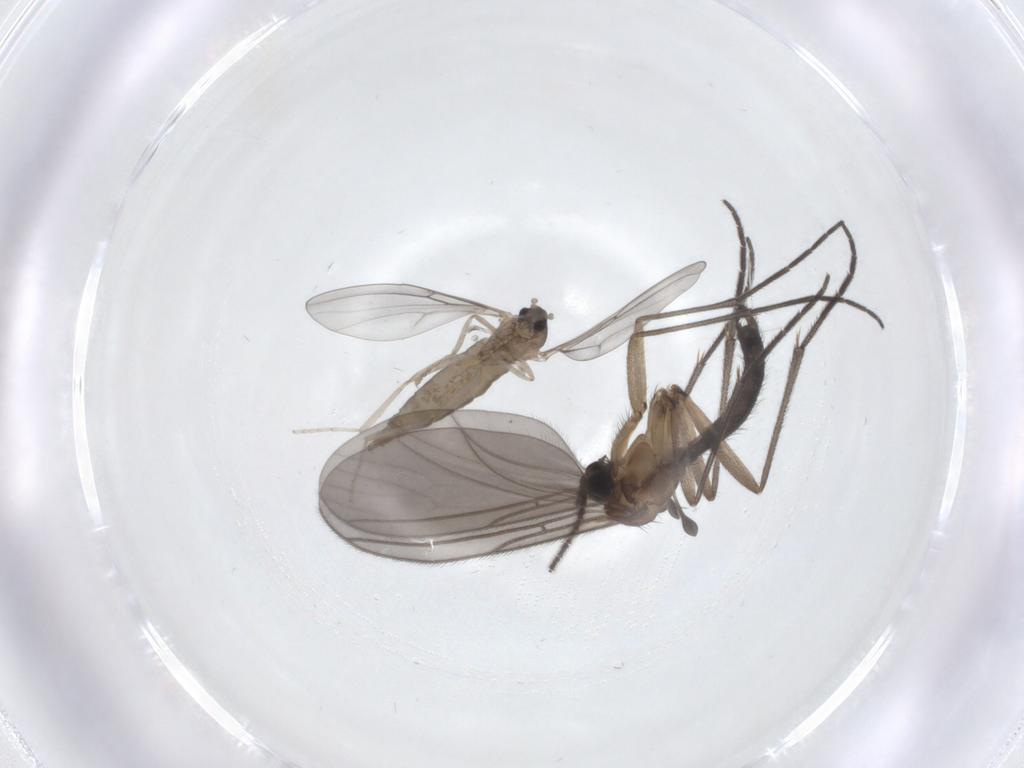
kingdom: Animalia
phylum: Arthropoda
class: Insecta
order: Diptera
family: Sciaridae
